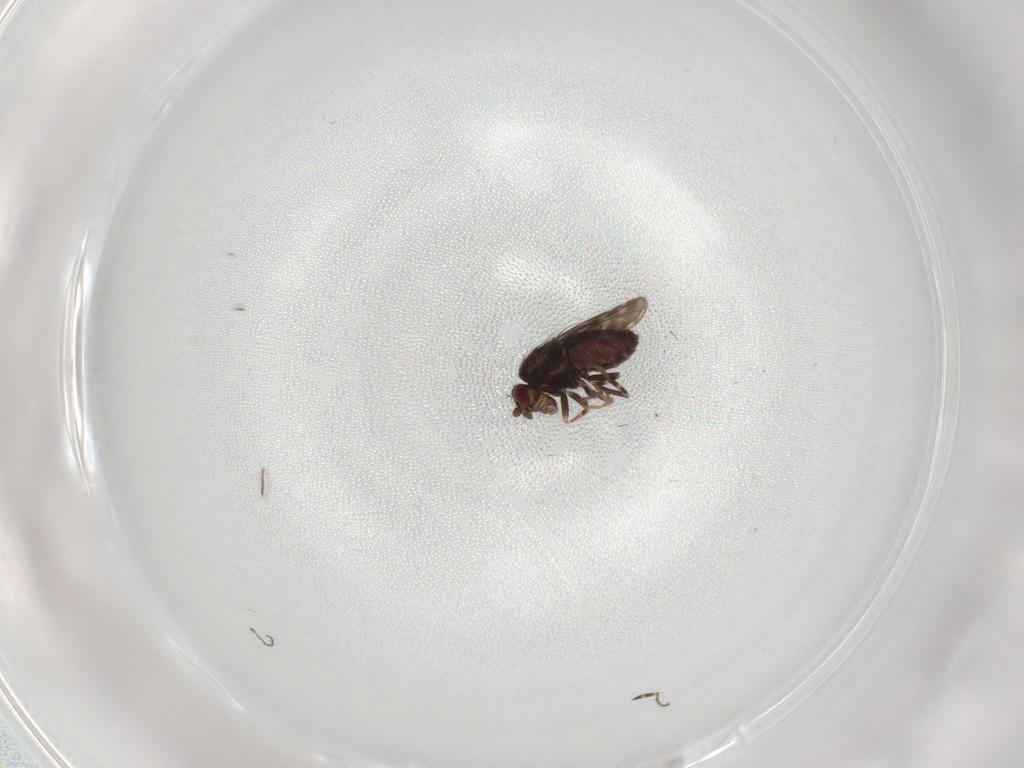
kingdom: Animalia
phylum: Arthropoda
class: Insecta
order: Diptera
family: Sphaeroceridae
